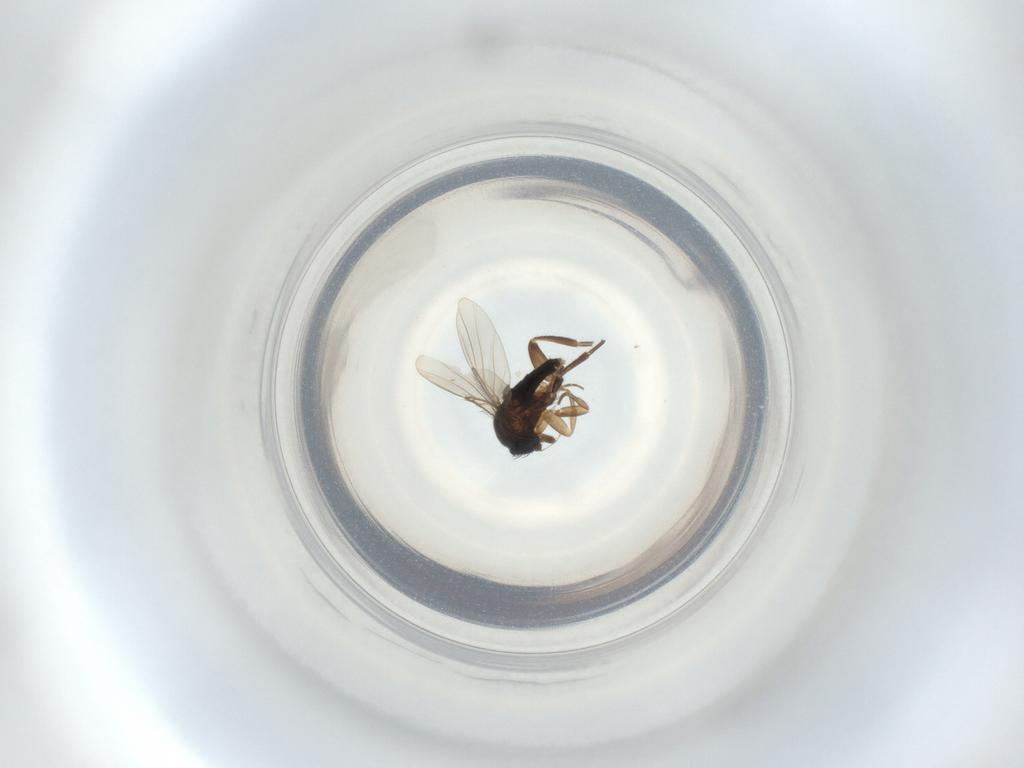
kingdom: Animalia
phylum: Arthropoda
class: Insecta
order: Diptera
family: Phoridae
